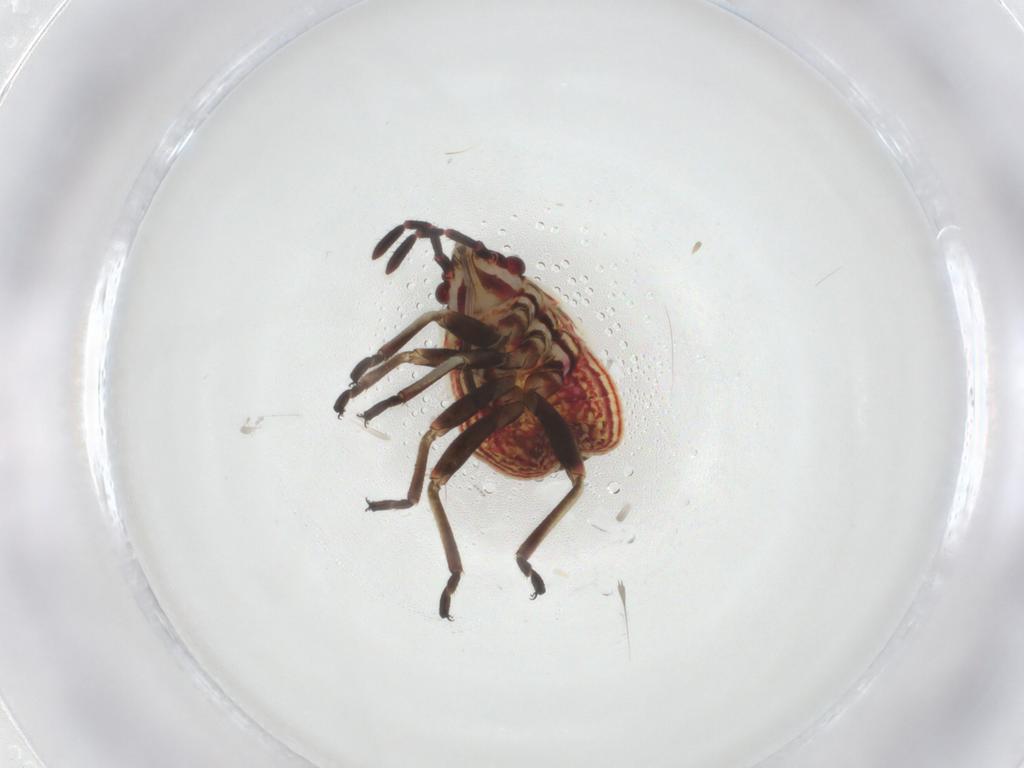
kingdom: Animalia
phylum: Arthropoda
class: Insecta
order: Hemiptera
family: Lygaeidae
